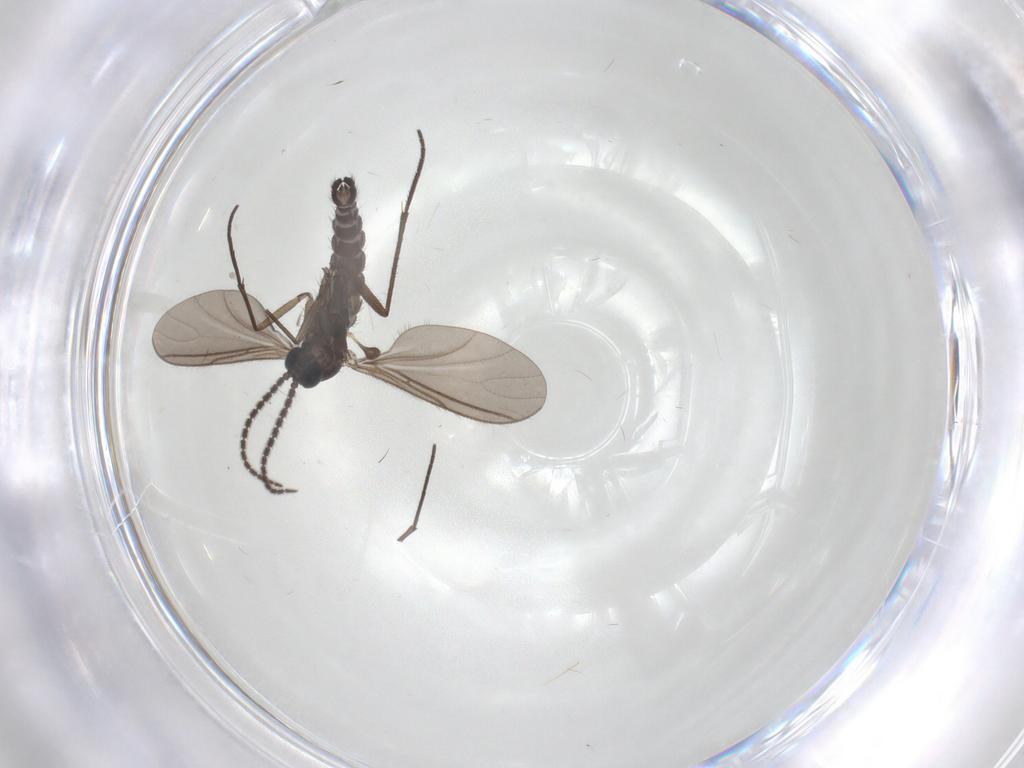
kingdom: Animalia
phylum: Arthropoda
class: Insecta
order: Diptera
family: Sciaridae
